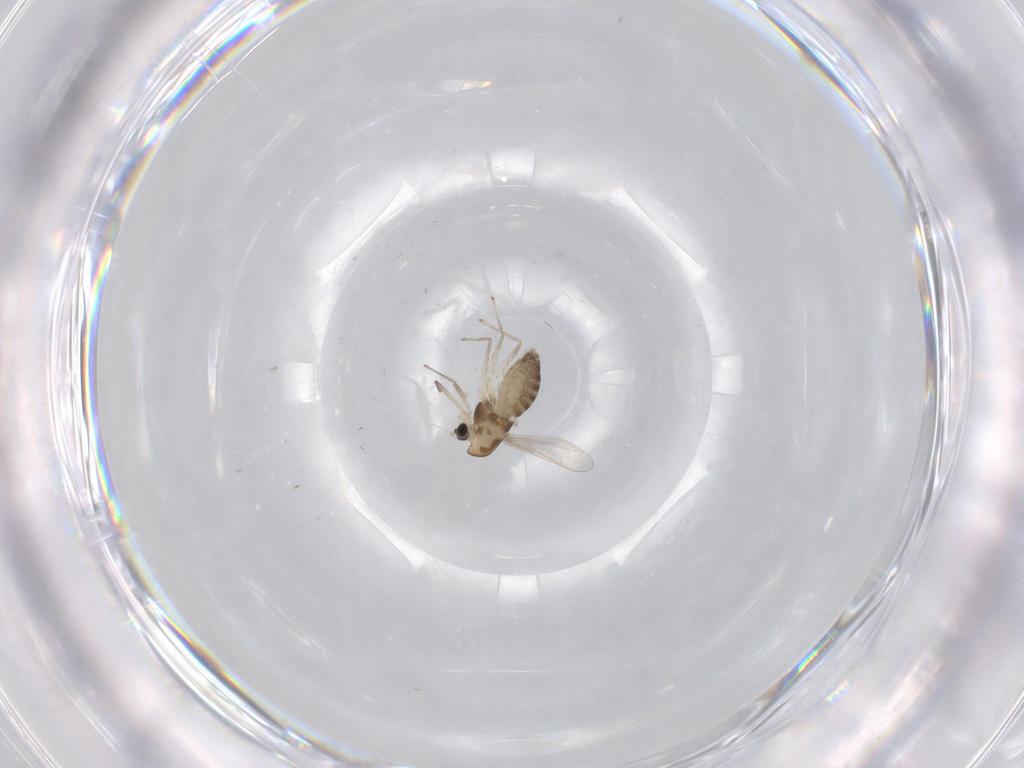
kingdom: Animalia
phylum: Arthropoda
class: Insecta
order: Diptera
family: Chironomidae
